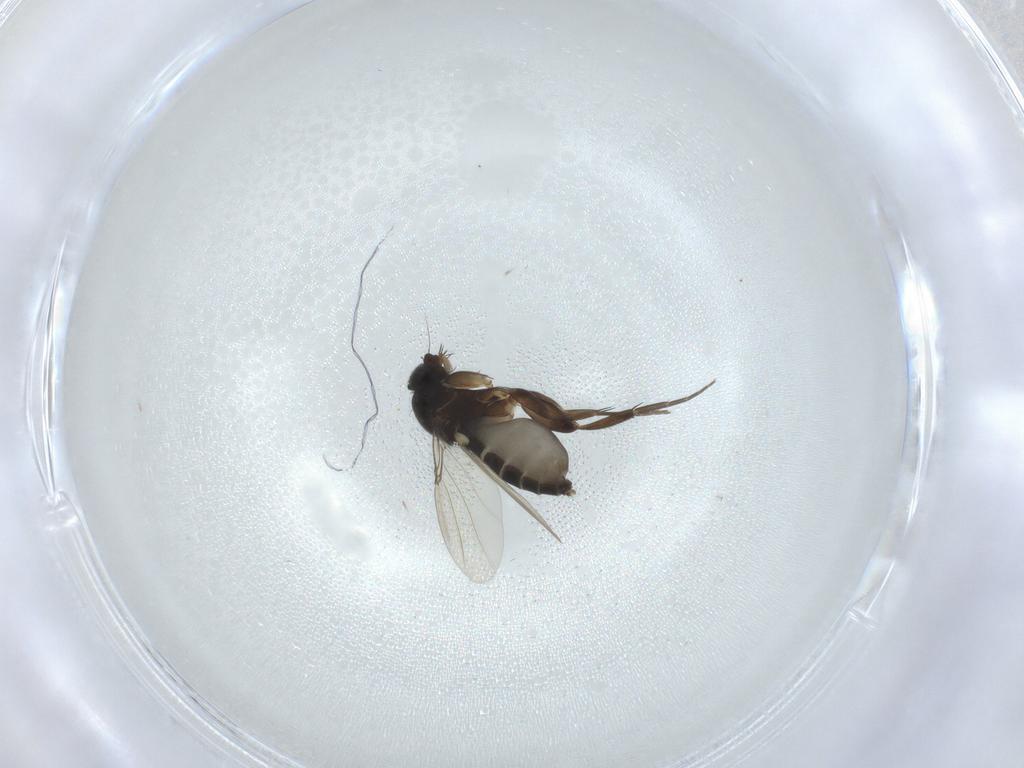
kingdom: Animalia
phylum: Arthropoda
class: Insecta
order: Diptera
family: Phoridae
